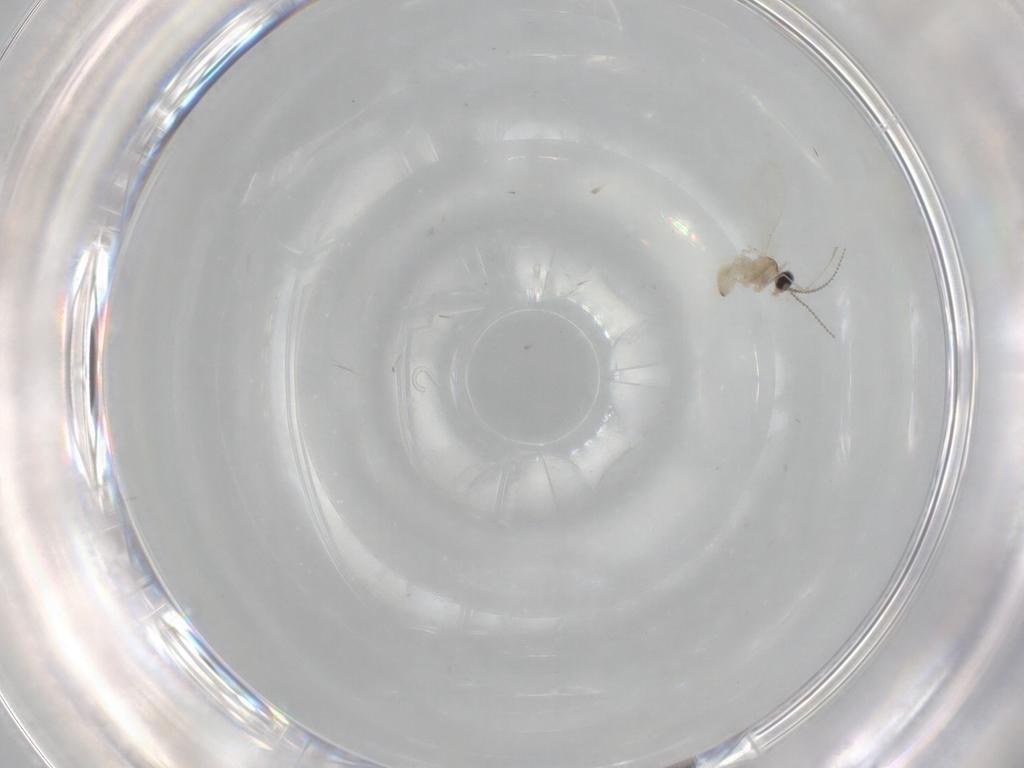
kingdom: Animalia
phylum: Arthropoda
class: Insecta
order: Diptera
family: Cecidomyiidae
